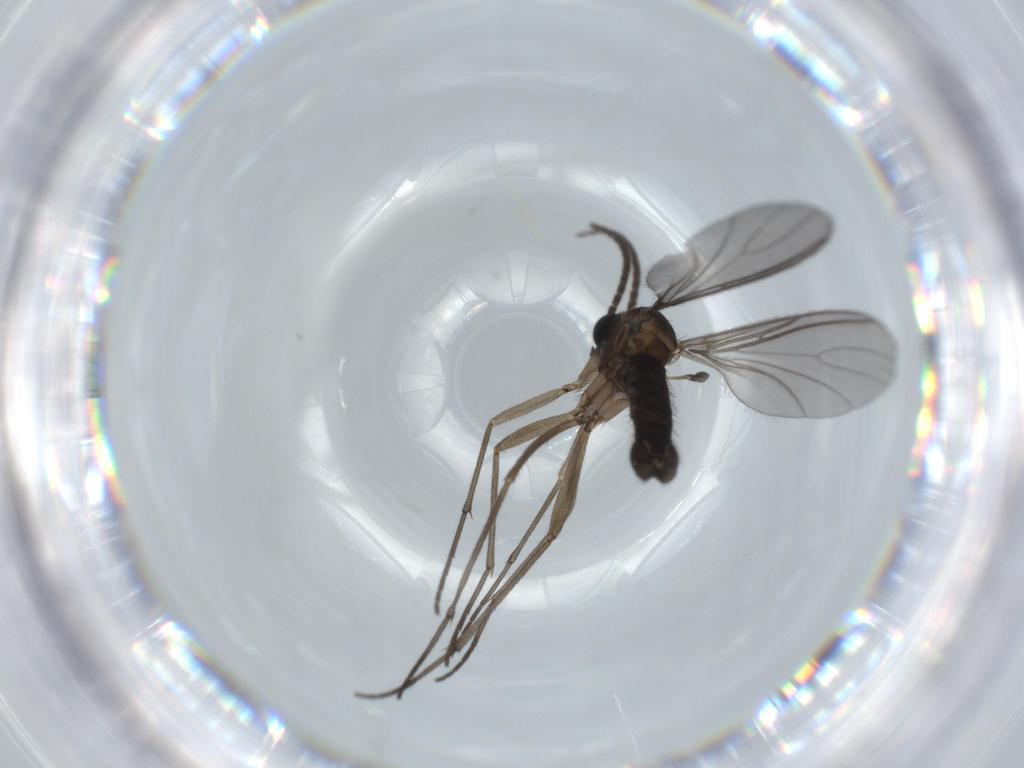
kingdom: Animalia
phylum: Arthropoda
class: Insecta
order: Diptera
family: Sciaridae
